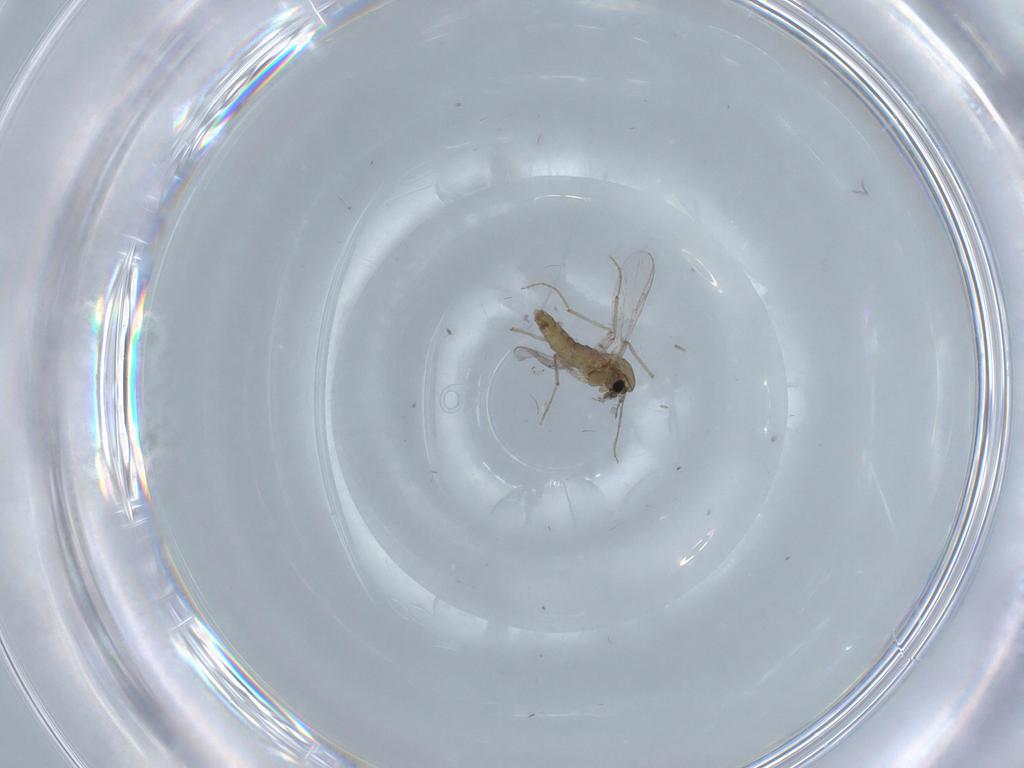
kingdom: Animalia
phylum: Arthropoda
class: Insecta
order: Diptera
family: Chironomidae
